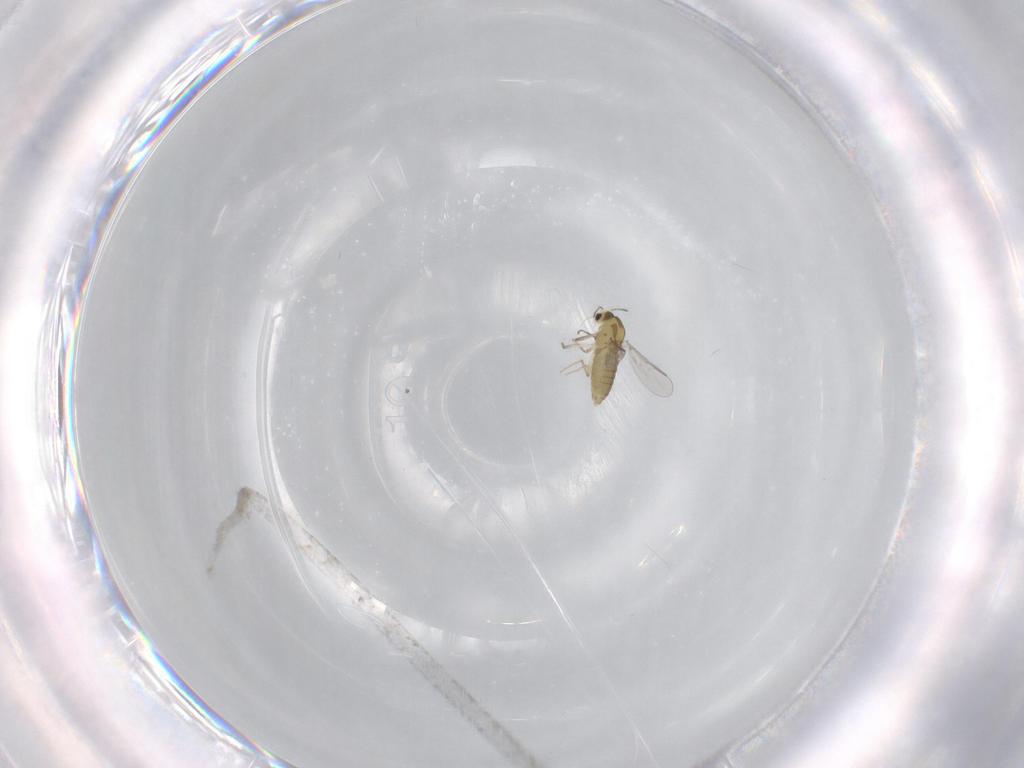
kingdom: Animalia
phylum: Arthropoda
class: Insecta
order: Diptera
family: Chironomidae
